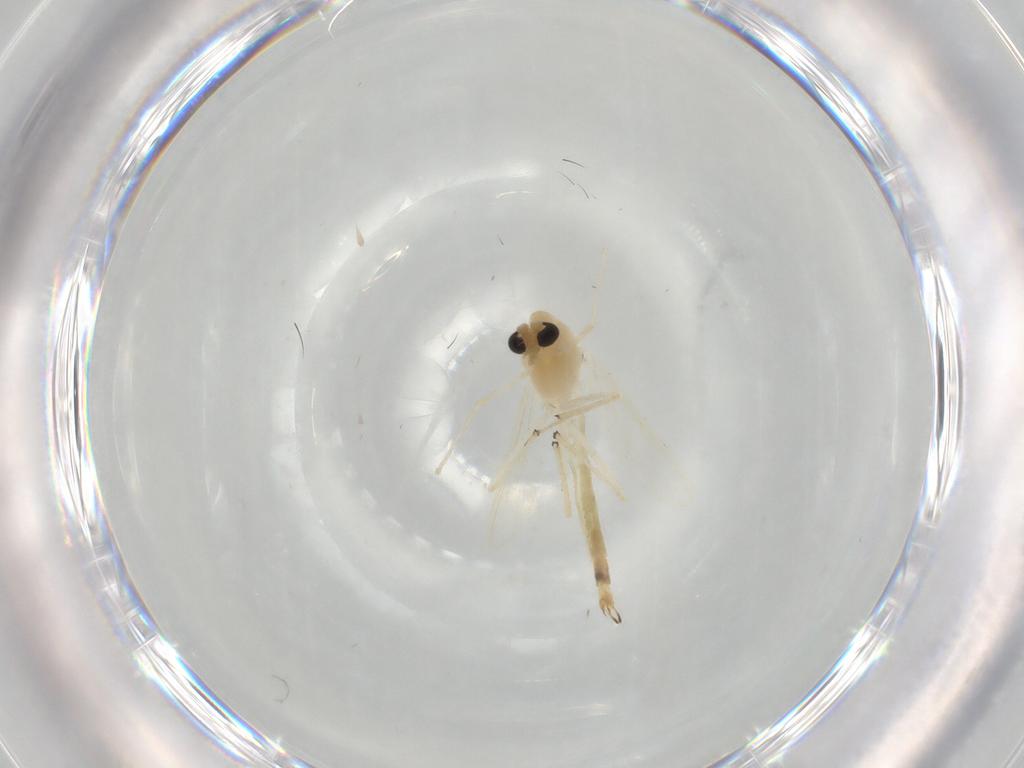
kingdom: Animalia
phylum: Arthropoda
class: Insecta
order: Diptera
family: Chironomidae
